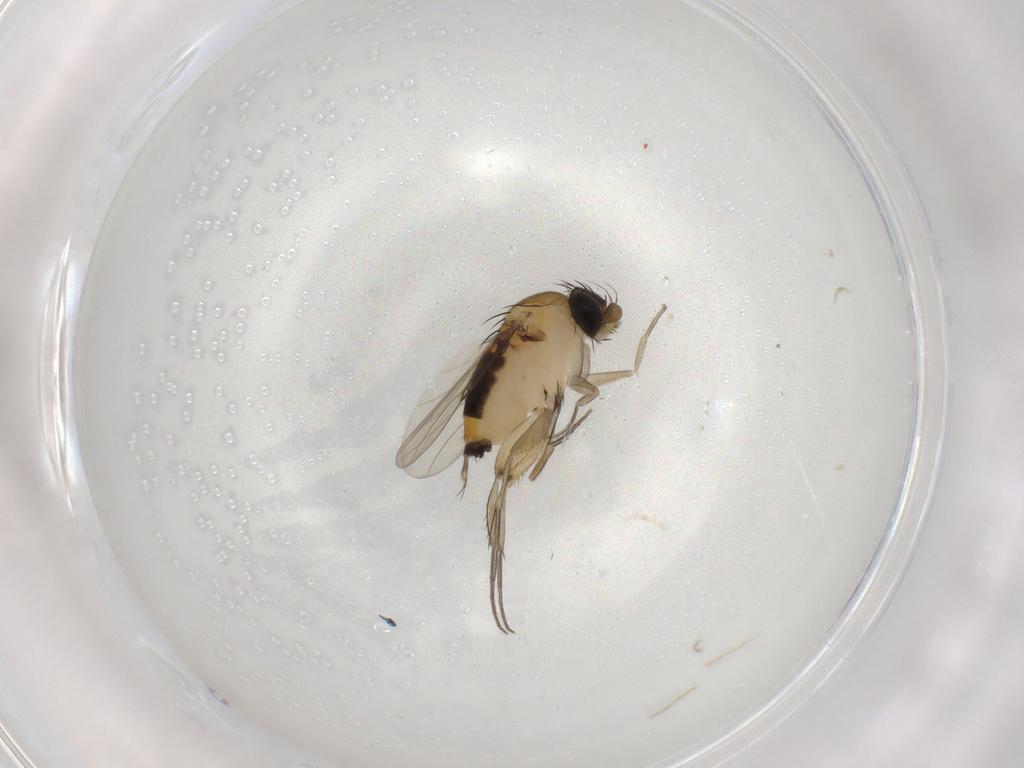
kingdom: Animalia
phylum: Arthropoda
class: Insecta
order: Diptera
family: Phoridae
